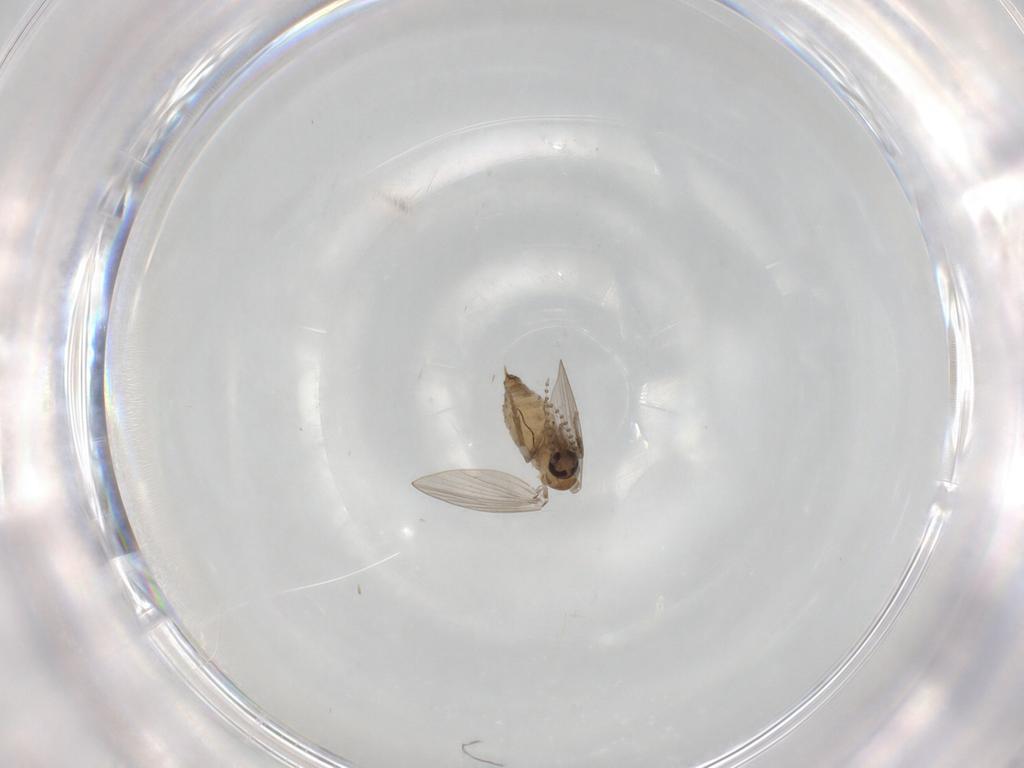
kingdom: Animalia
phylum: Arthropoda
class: Insecta
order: Diptera
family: Psychodidae
